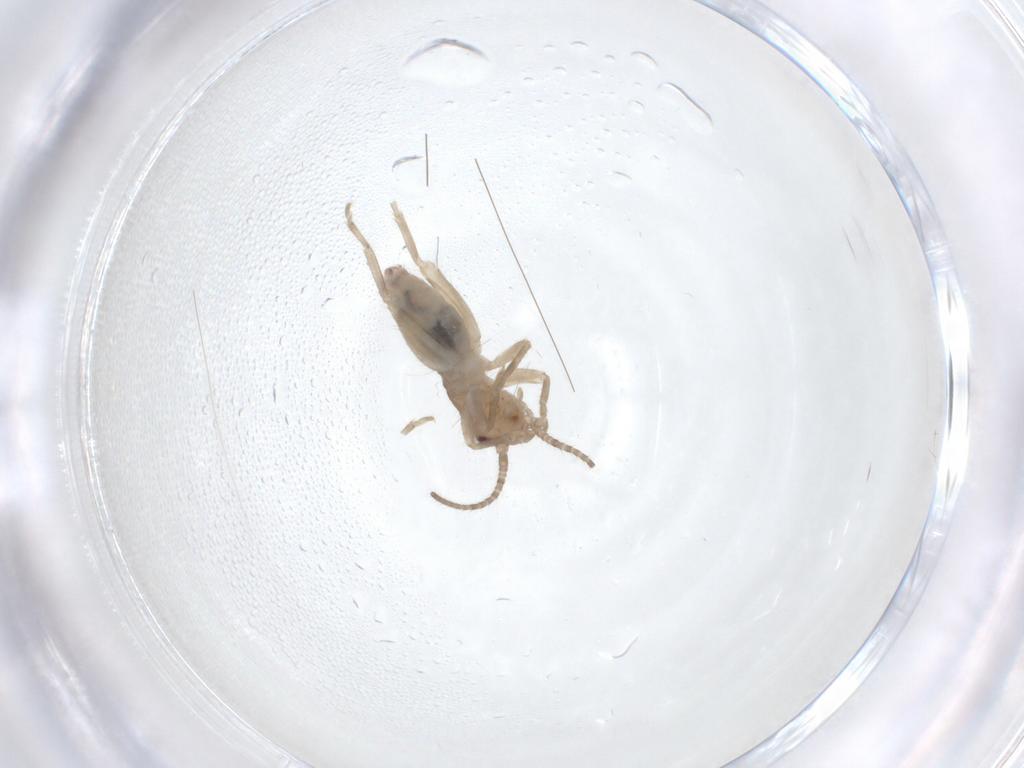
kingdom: Animalia
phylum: Arthropoda
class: Insecta
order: Orthoptera
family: Gryllidae
